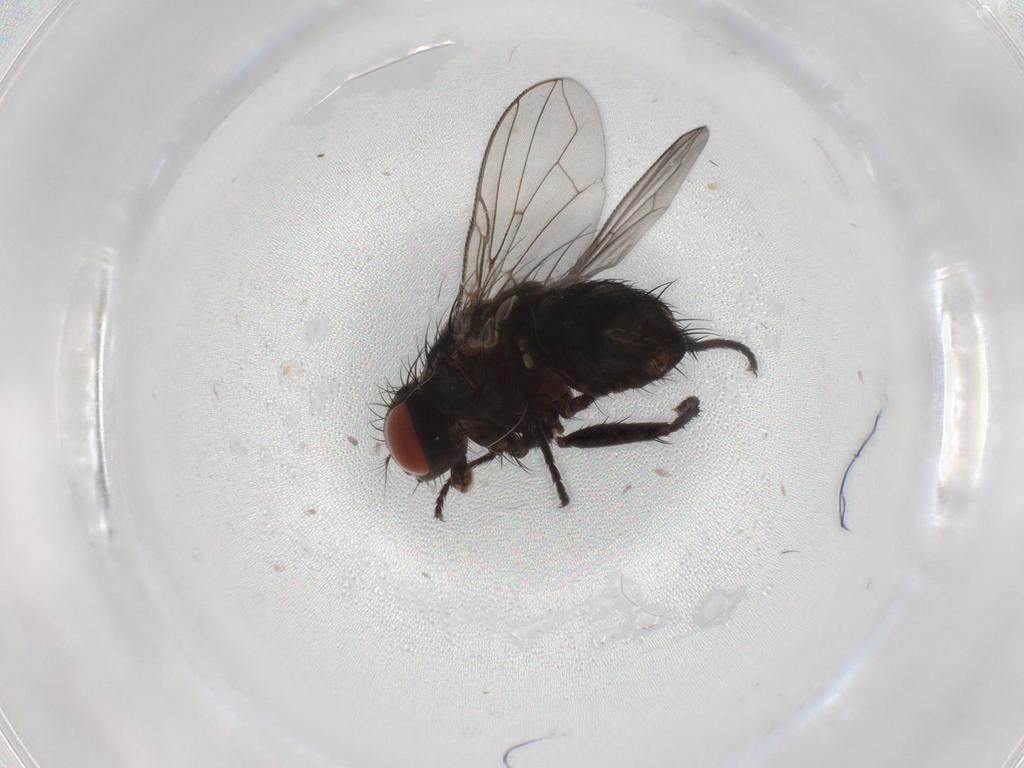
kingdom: Animalia
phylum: Arthropoda
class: Insecta
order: Diptera
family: Sarcophagidae
